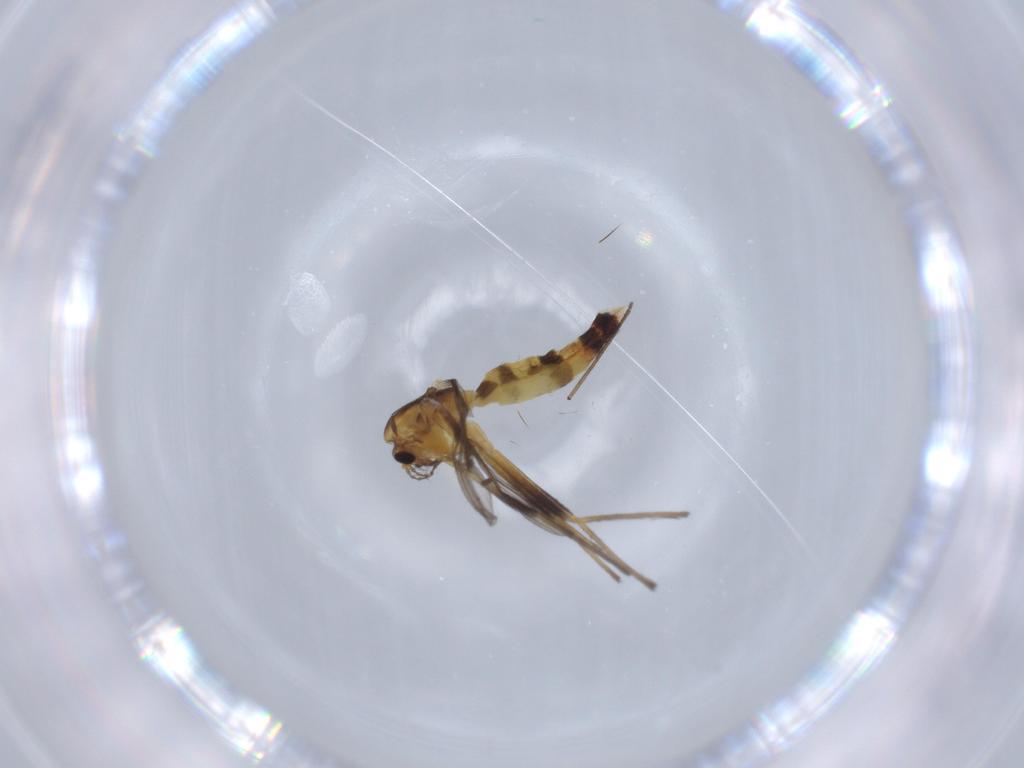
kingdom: Animalia
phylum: Arthropoda
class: Insecta
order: Diptera
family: Chironomidae
